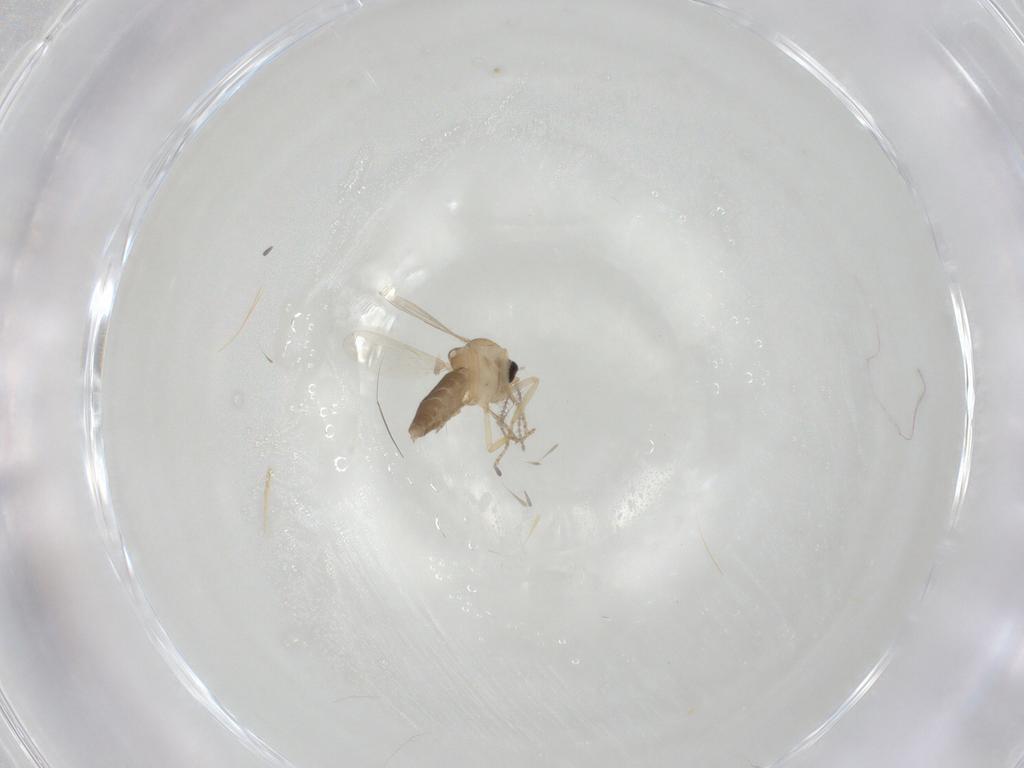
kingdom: Animalia
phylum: Arthropoda
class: Insecta
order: Diptera
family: Ceratopogonidae
